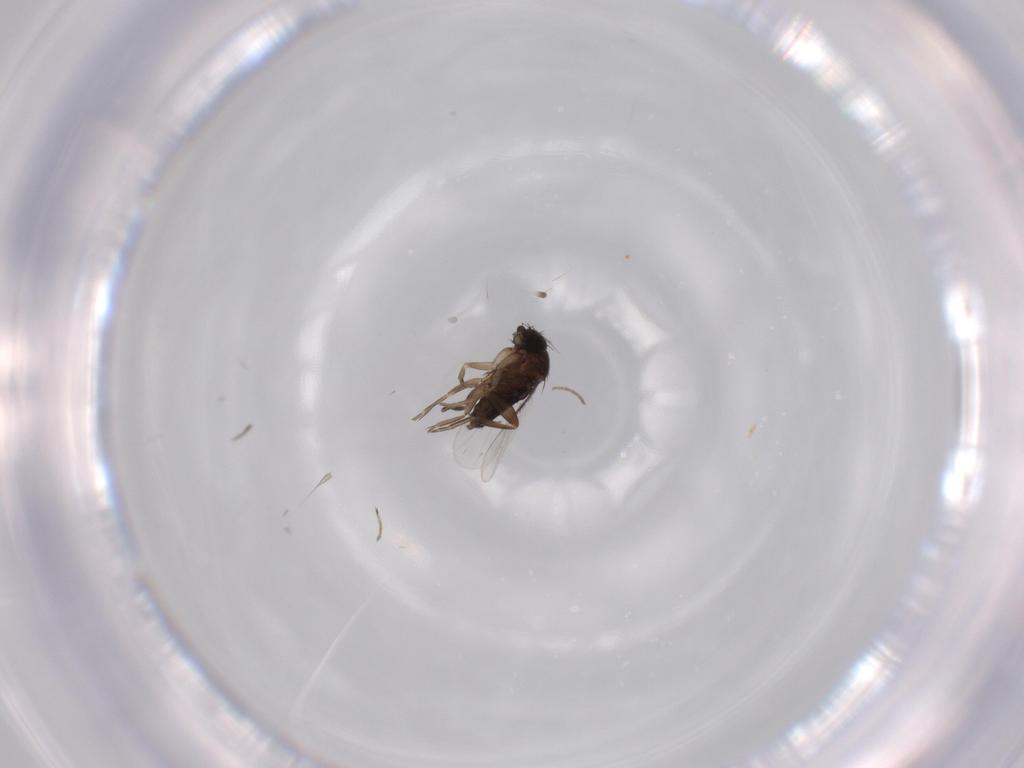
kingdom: Animalia
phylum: Arthropoda
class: Insecta
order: Diptera
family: Phoridae
